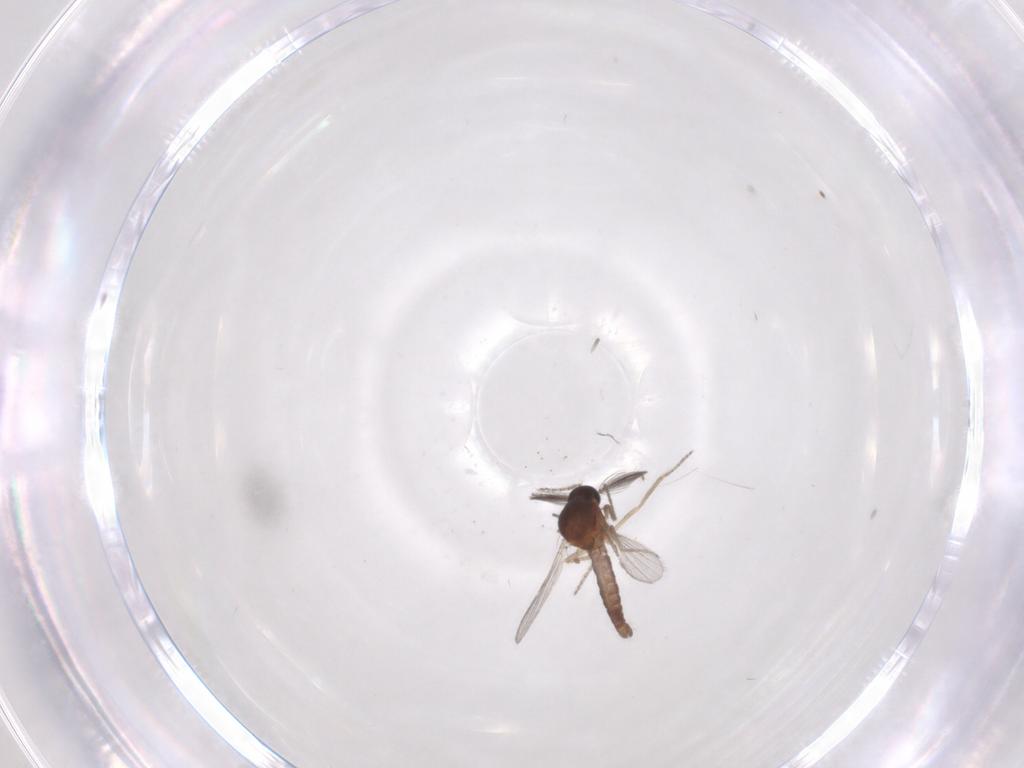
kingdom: Animalia
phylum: Arthropoda
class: Insecta
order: Diptera
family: Ceratopogonidae
